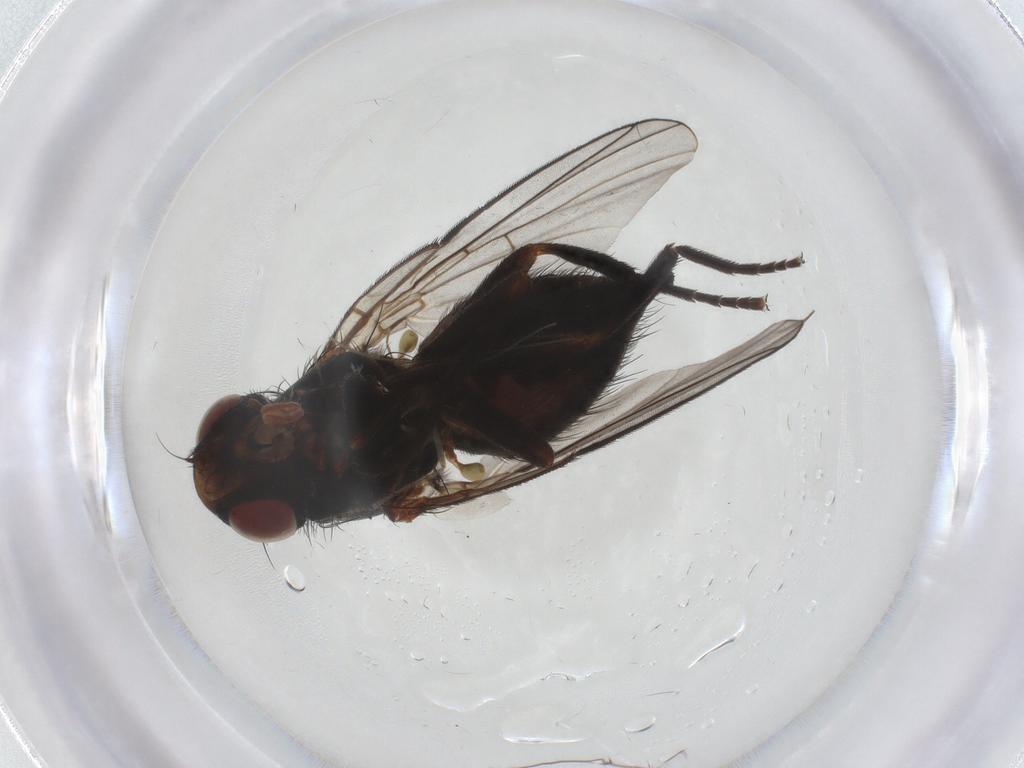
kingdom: Animalia
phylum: Arthropoda
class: Insecta
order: Diptera
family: Agromyzidae
